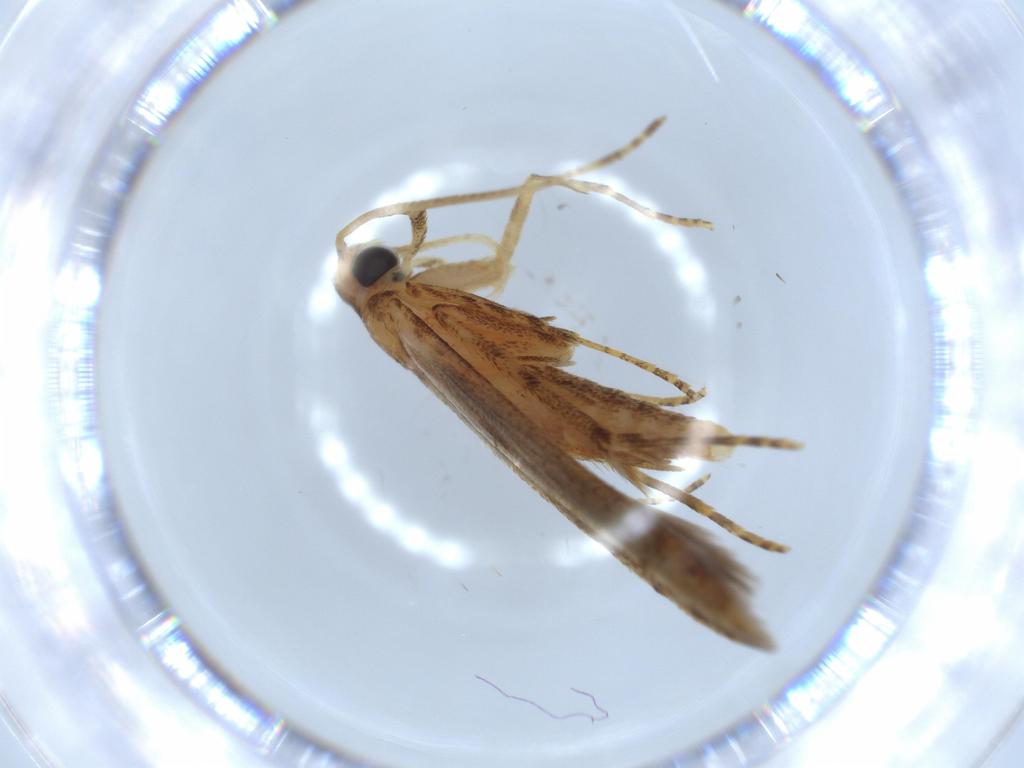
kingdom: Animalia
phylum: Arthropoda
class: Insecta
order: Lepidoptera
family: Batrachedridae
